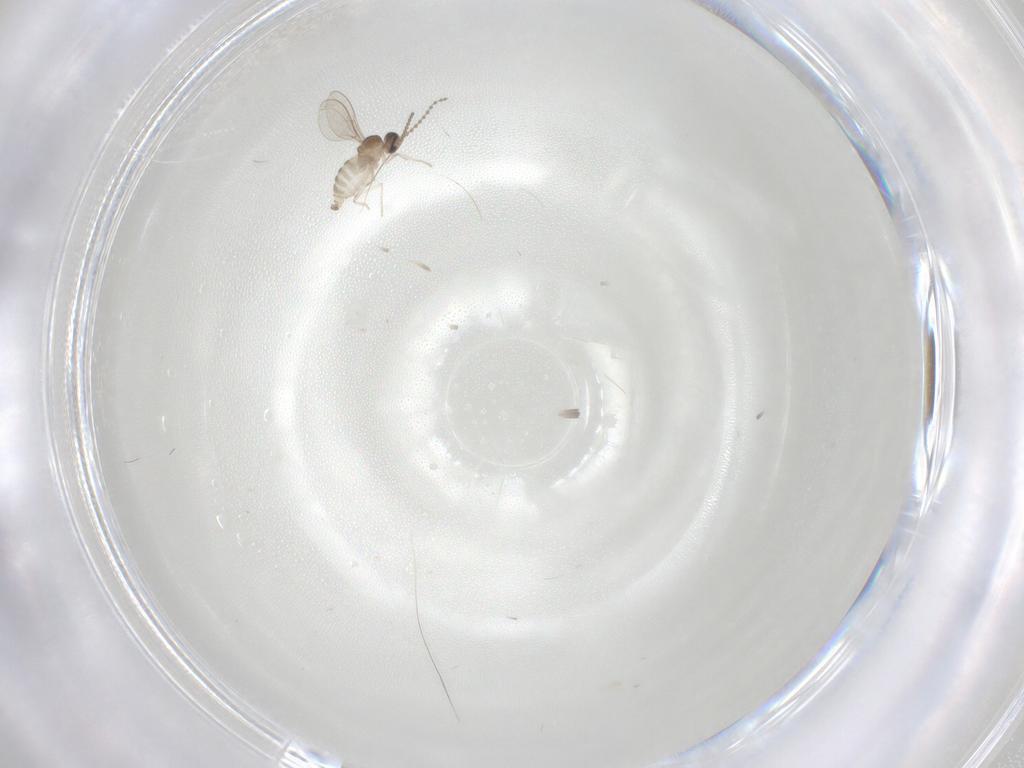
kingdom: Animalia
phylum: Arthropoda
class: Insecta
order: Diptera
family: Cecidomyiidae
